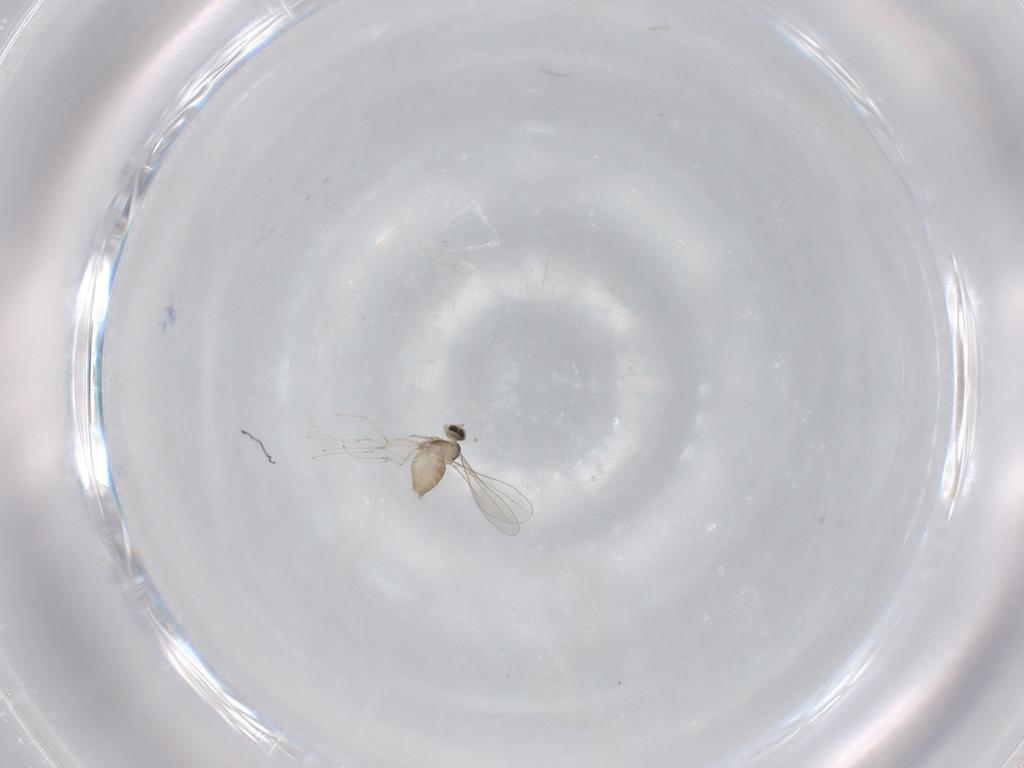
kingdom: Animalia
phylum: Arthropoda
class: Insecta
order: Diptera
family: Cecidomyiidae
